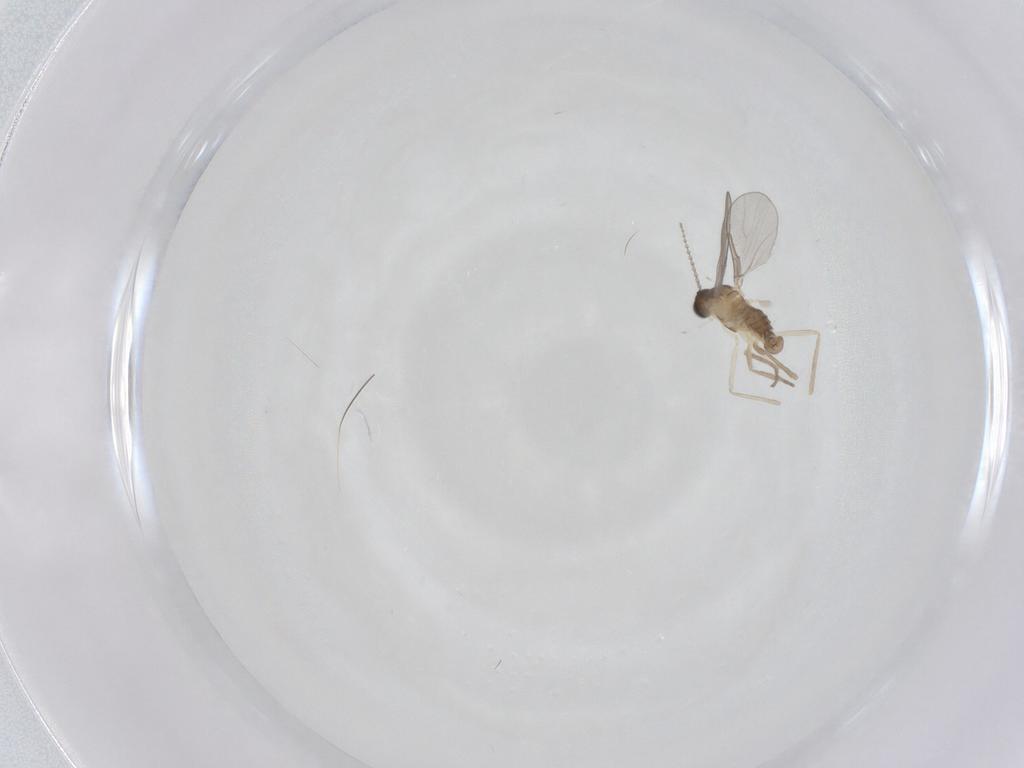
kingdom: Animalia
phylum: Arthropoda
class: Insecta
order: Diptera
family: Cecidomyiidae
